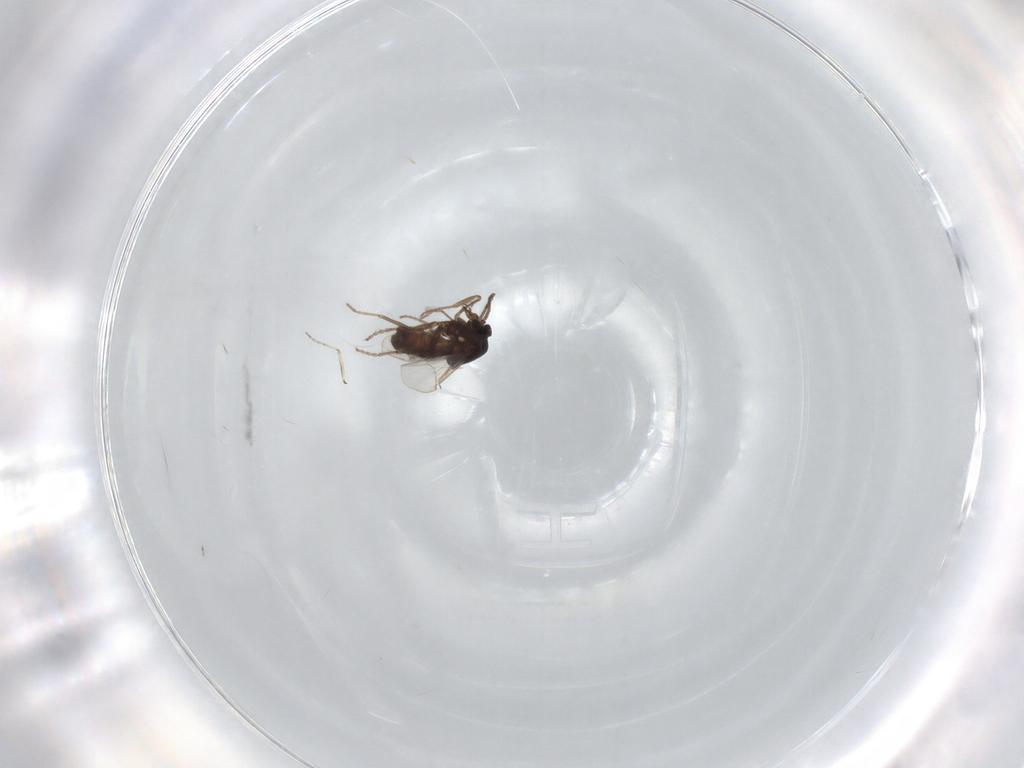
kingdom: Animalia
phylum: Arthropoda
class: Insecta
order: Diptera
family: Ceratopogonidae
